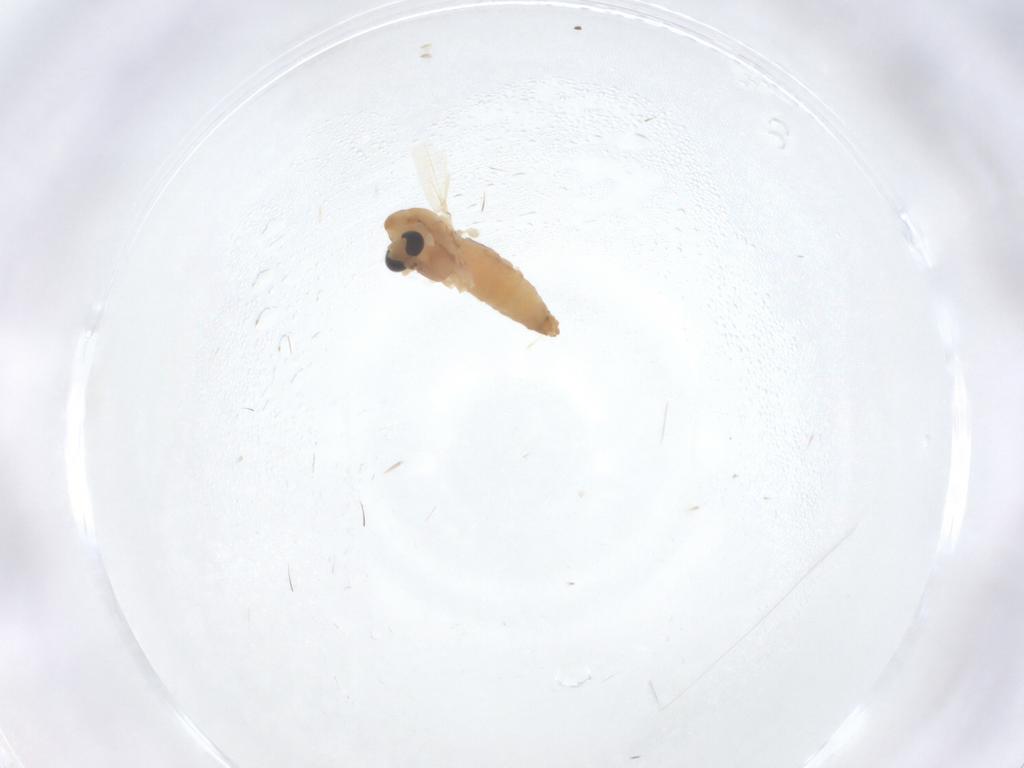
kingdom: Animalia
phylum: Arthropoda
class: Insecta
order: Diptera
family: Chironomidae
